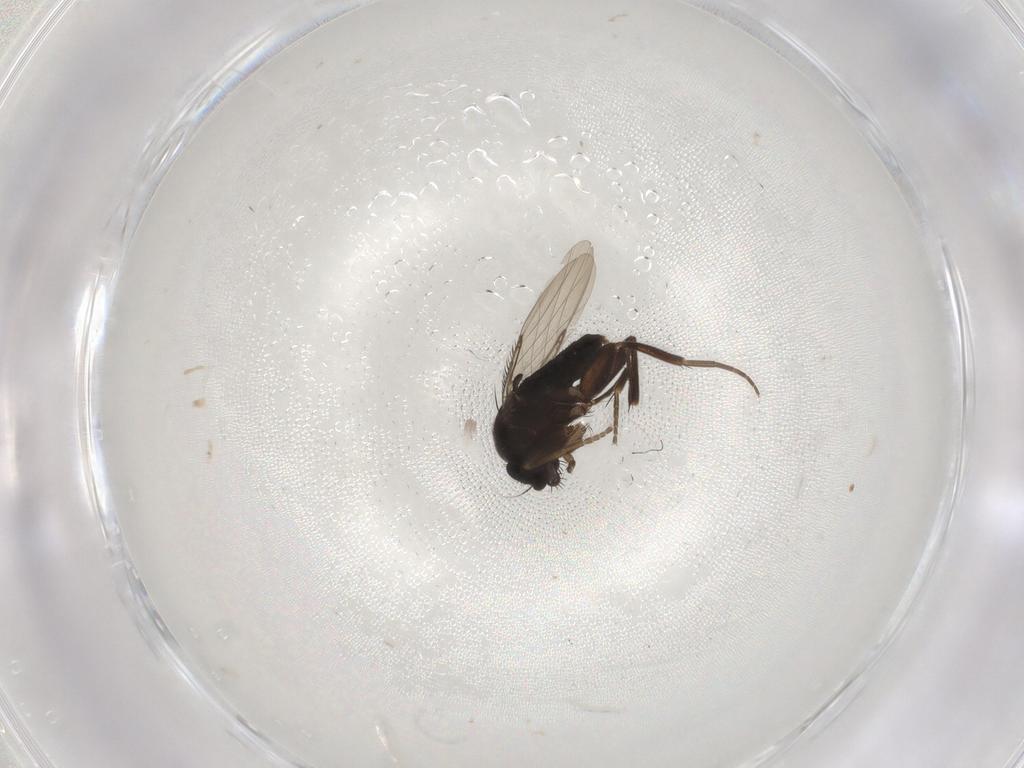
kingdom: Animalia
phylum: Arthropoda
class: Insecta
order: Diptera
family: Phoridae
